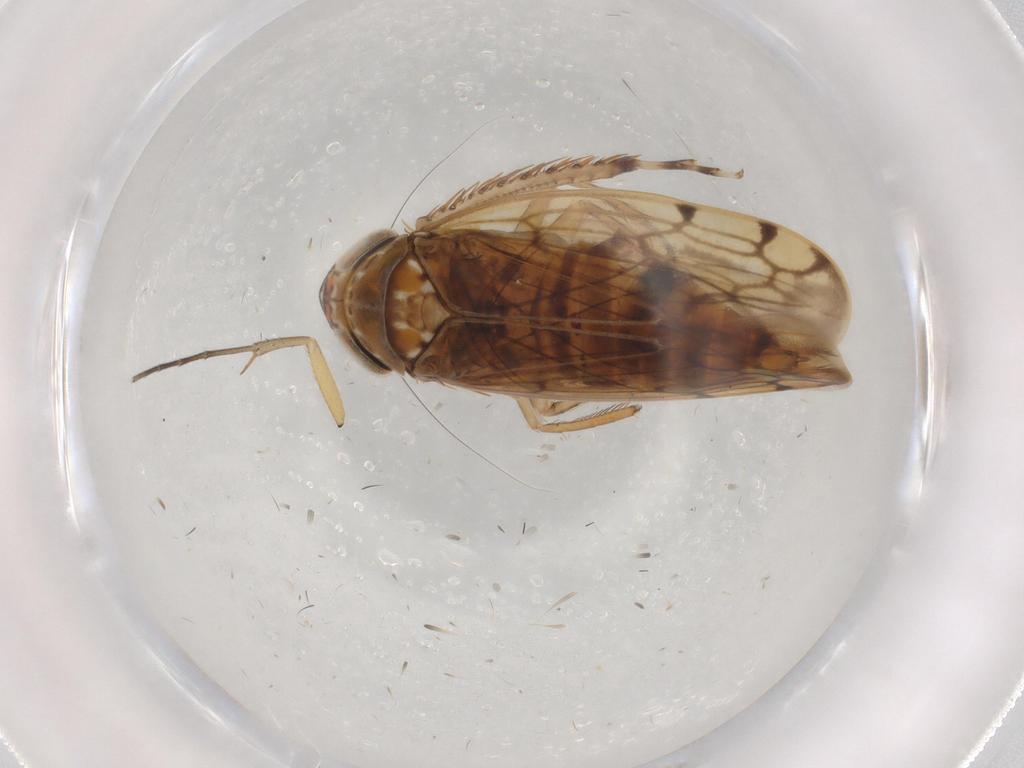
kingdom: Animalia
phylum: Arthropoda
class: Insecta
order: Hemiptera
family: Cicadellidae
